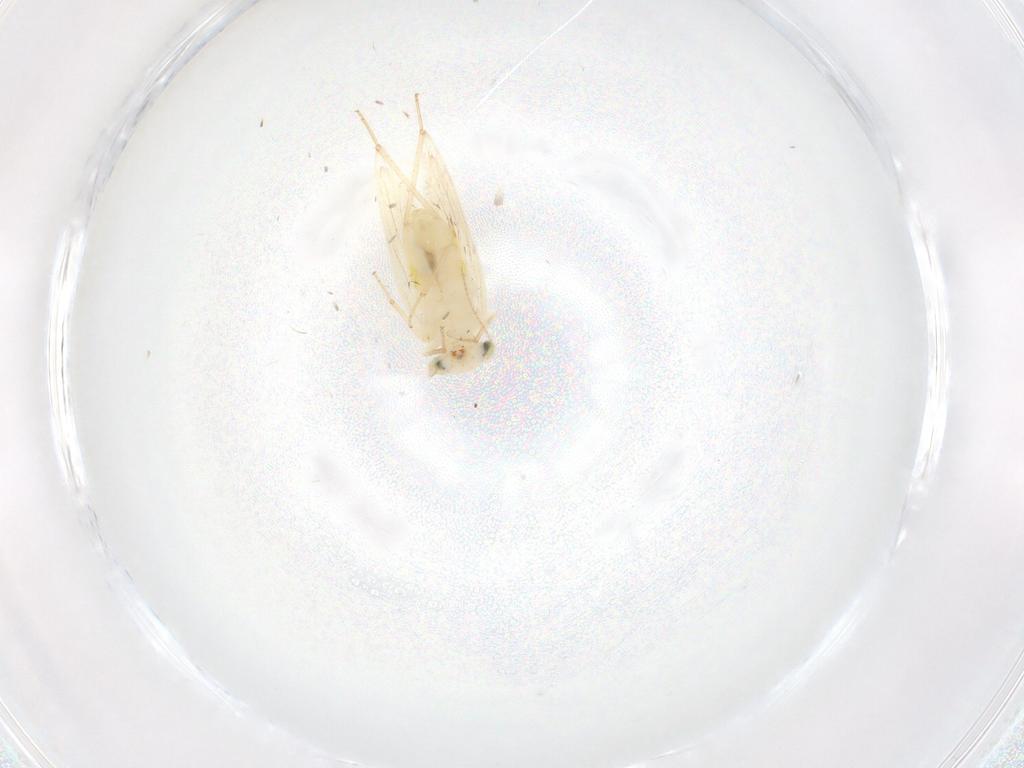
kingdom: Animalia
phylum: Arthropoda
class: Insecta
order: Psocodea
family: Lepidopsocidae
